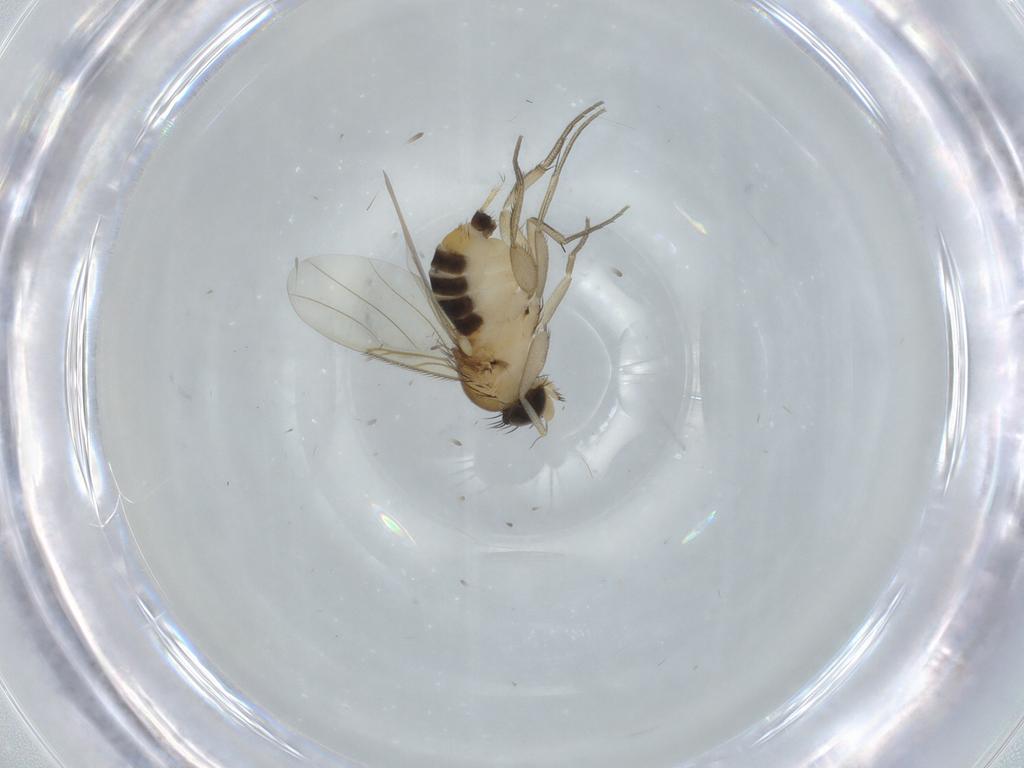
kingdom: Animalia
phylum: Arthropoda
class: Insecta
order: Diptera
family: Phoridae
